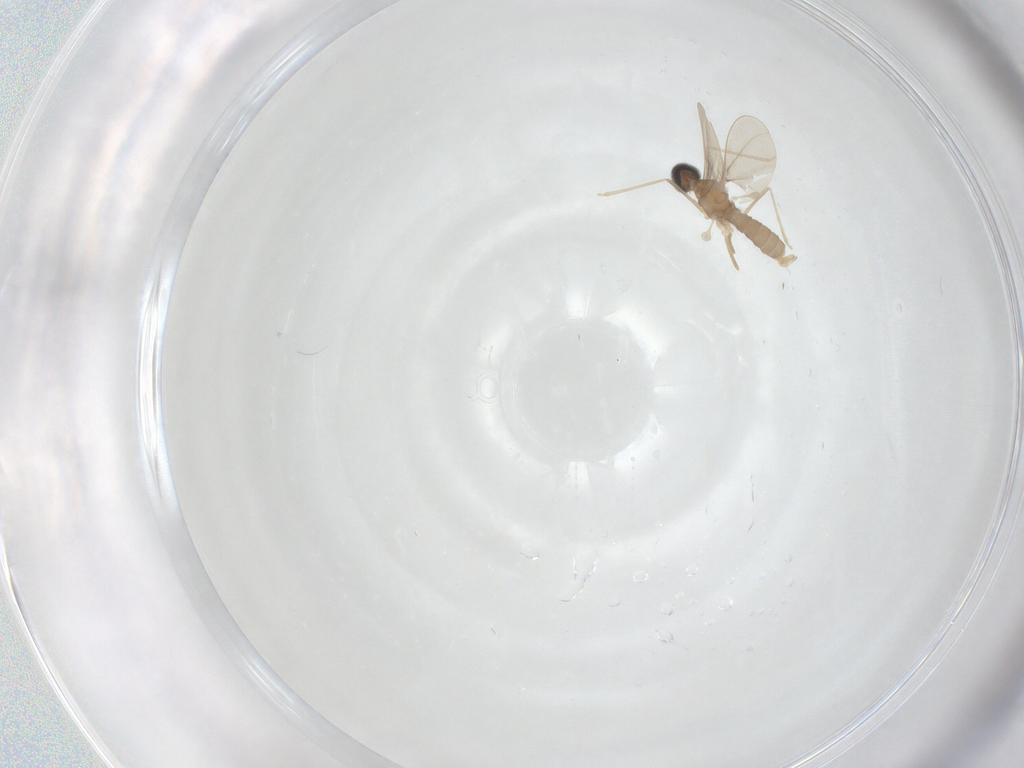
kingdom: Animalia
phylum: Arthropoda
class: Insecta
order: Diptera
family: Cecidomyiidae
